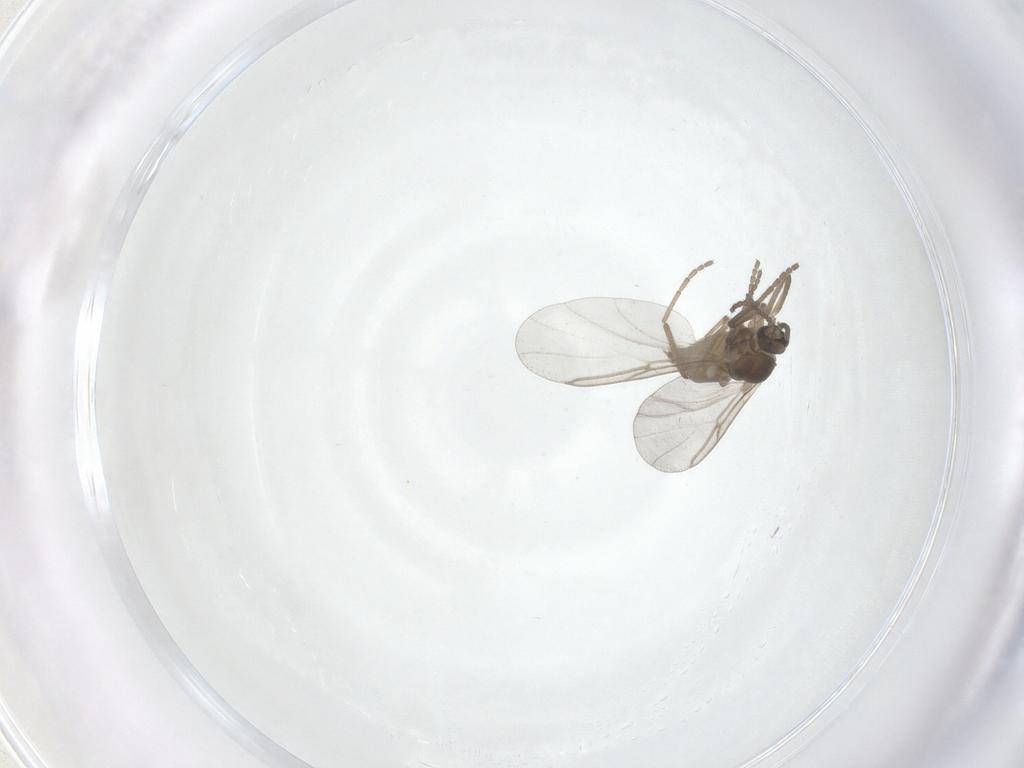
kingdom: Animalia
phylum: Arthropoda
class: Insecta
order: Diptera
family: Cecidomyiidae
